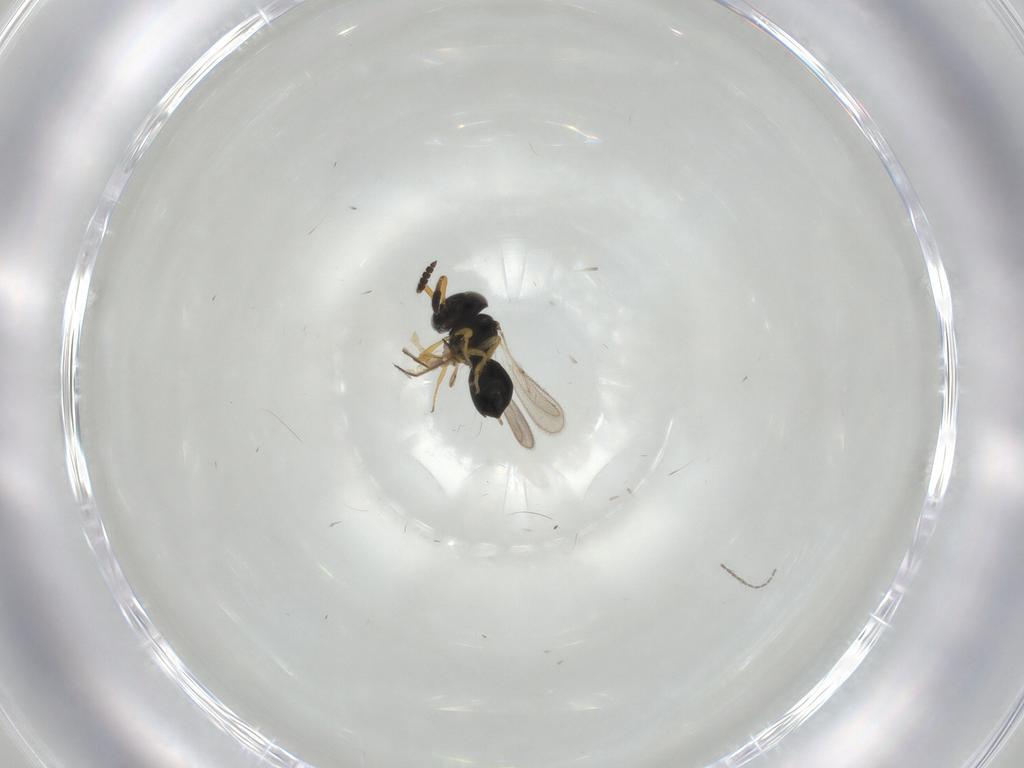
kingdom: Animalia
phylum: Arthropoda
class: Insecta
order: Hymenoptera
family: Scelionidae
